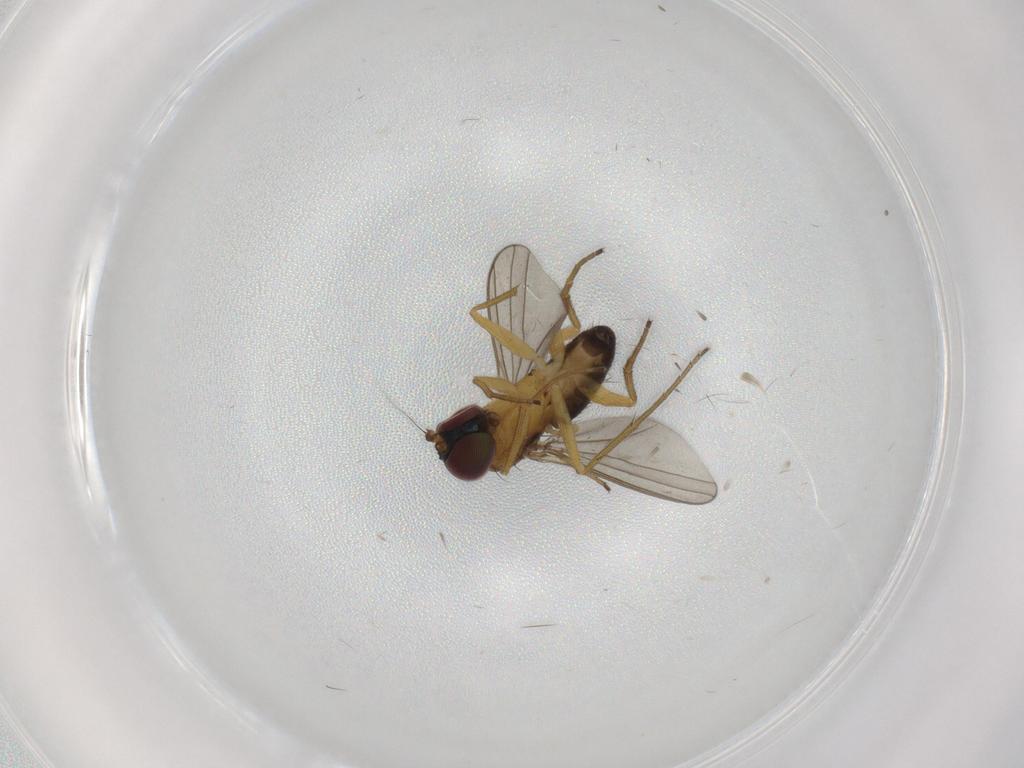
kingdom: Animalia
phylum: Arthropoda
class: Insecta
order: Diptera
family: Dolichopodidae
